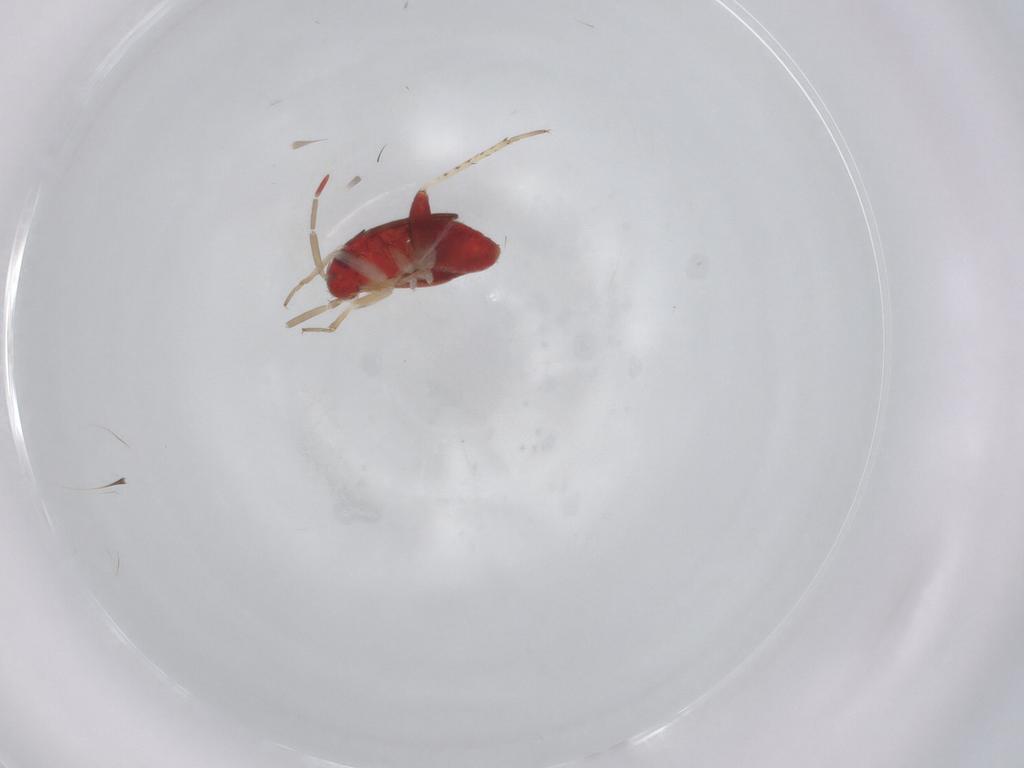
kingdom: Animalia
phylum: Arthropoda
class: Insecta
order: Hemiptera
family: Miridae
